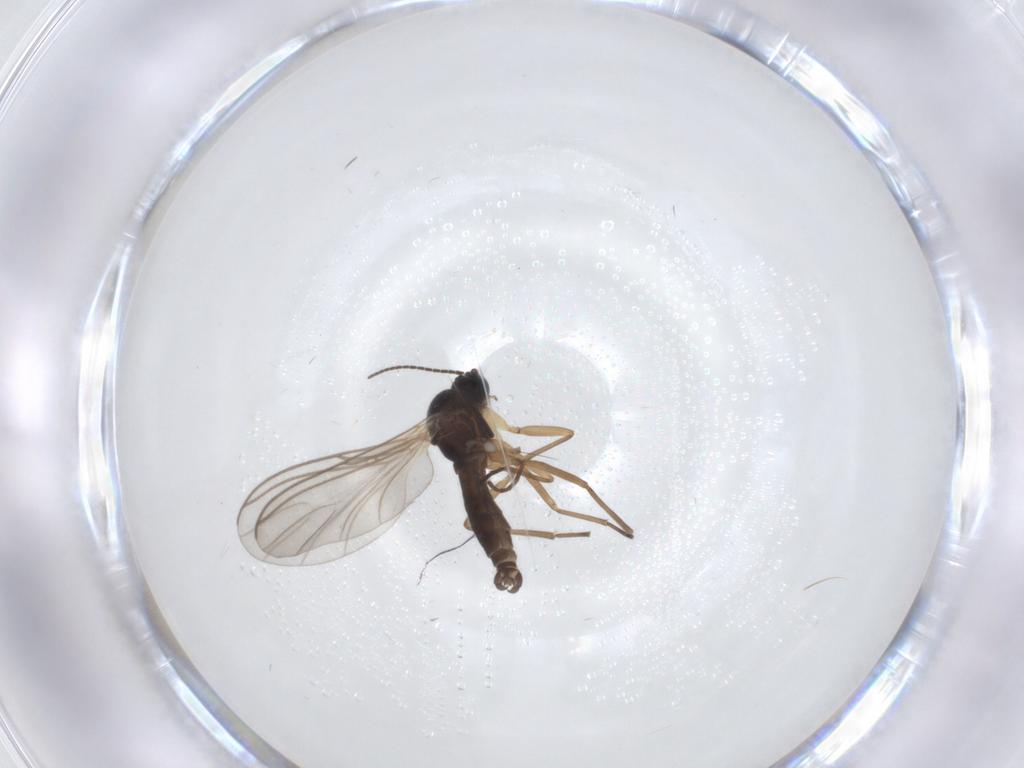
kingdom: Animalia
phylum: Arthropoda
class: Insecta
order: Diptera
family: Sciaridae
